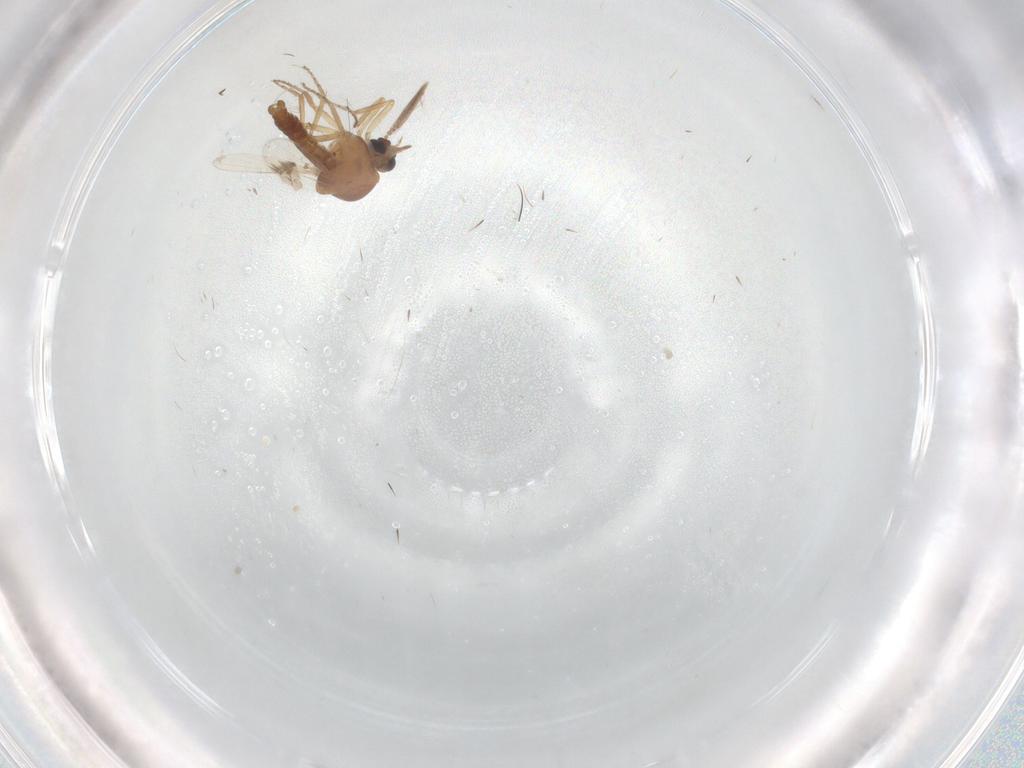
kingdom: Animalia
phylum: Arthropoda
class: Insecta
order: Diptera
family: Ceratopogonidae
